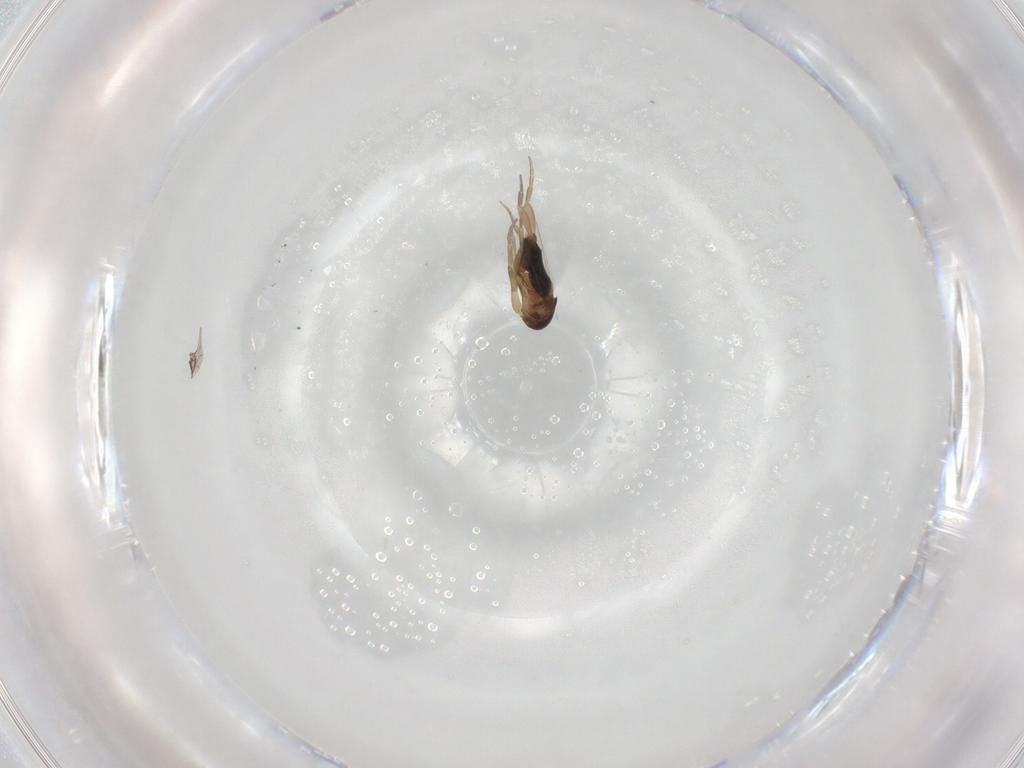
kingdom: Animalia
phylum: Arthropoda
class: Insecta
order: Diptera
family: Phoridae
